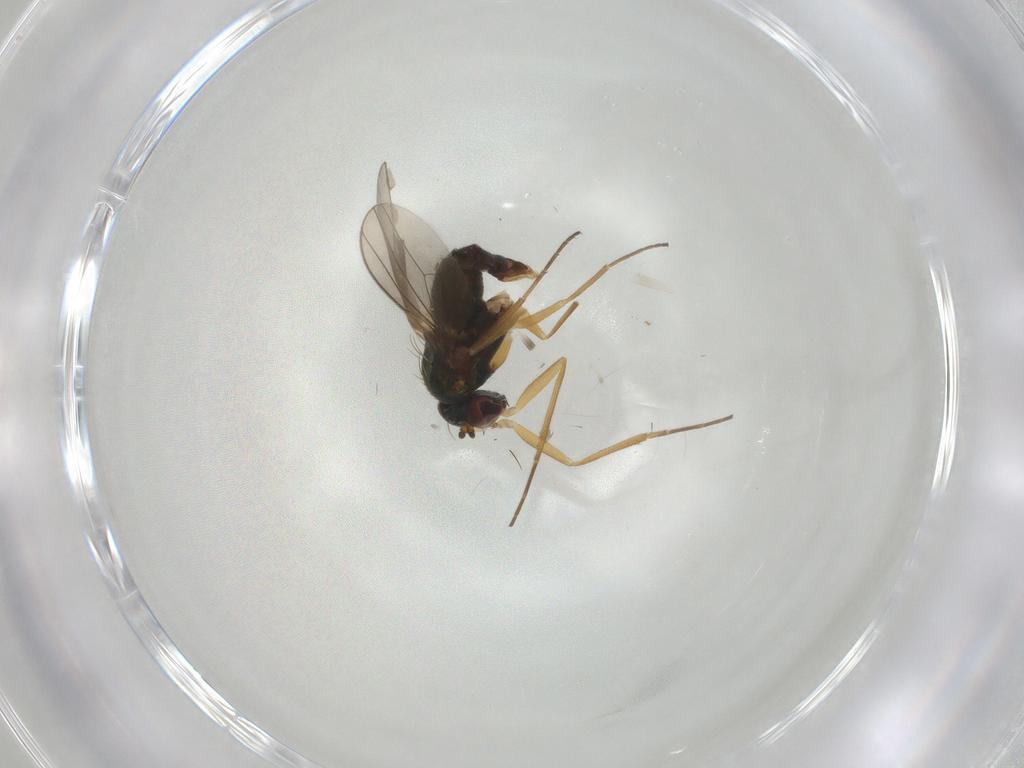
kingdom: Animalia
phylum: Arthropoda
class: Insecta
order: Diptera
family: Dolichopodidae
